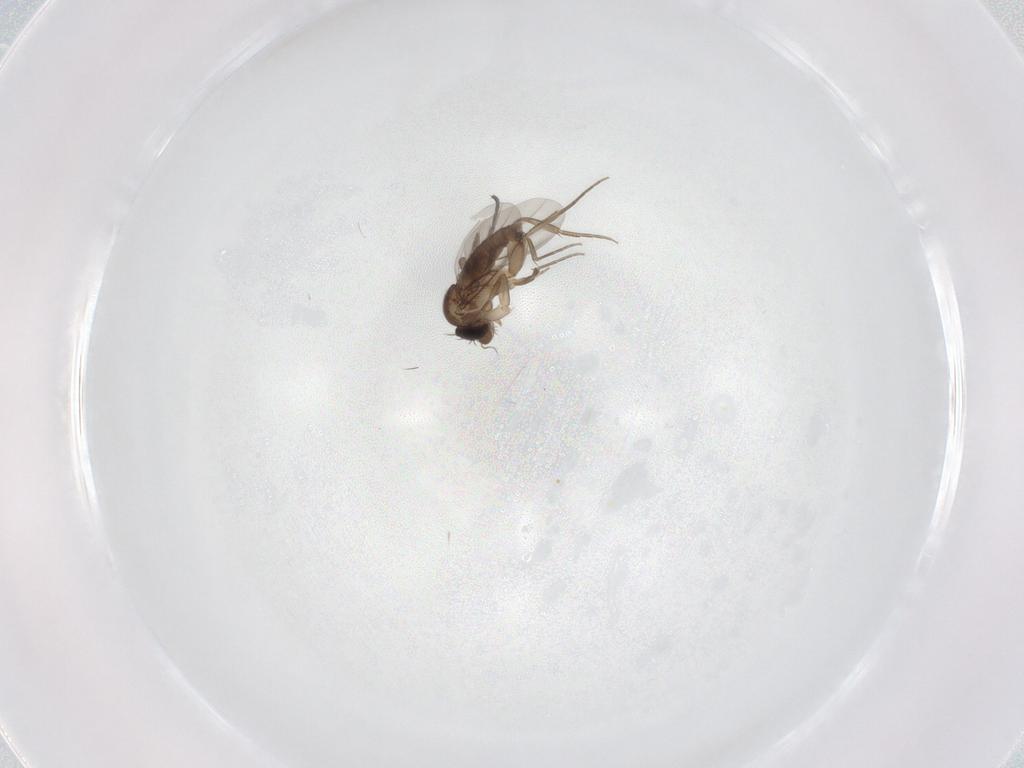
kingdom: Animalia
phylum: Arthropoda
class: Insecta
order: Diptera
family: Phoridae
